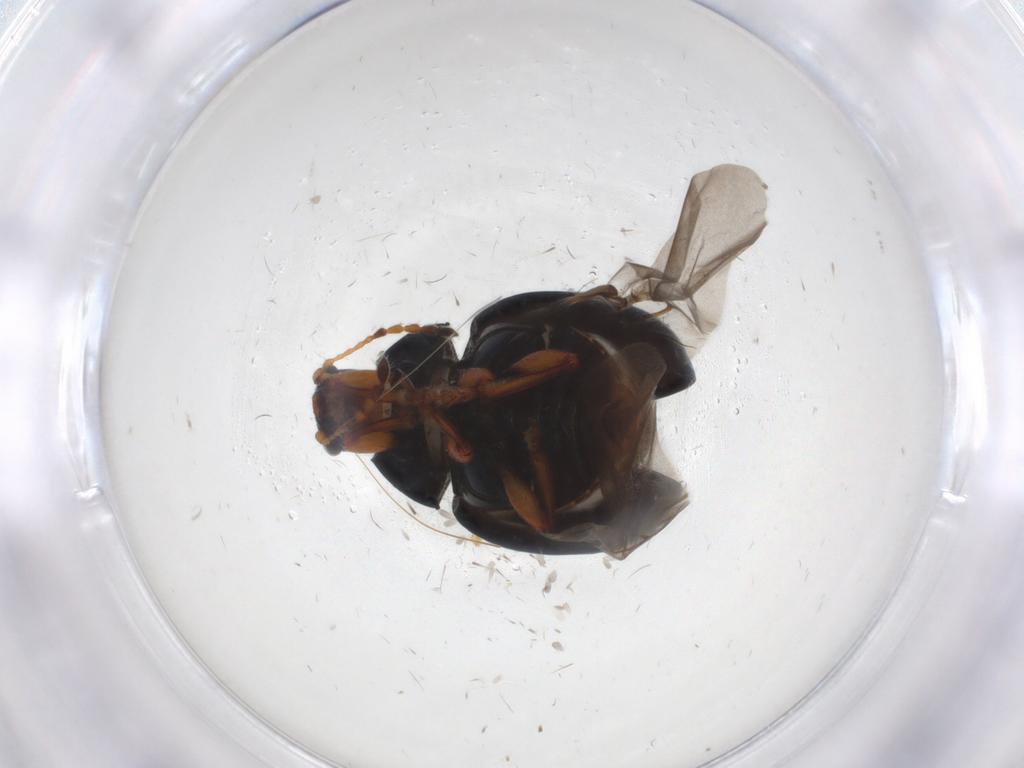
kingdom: Animalia
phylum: Arthropoda
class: Insecta
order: Coleoptera
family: Chrysomelidae
